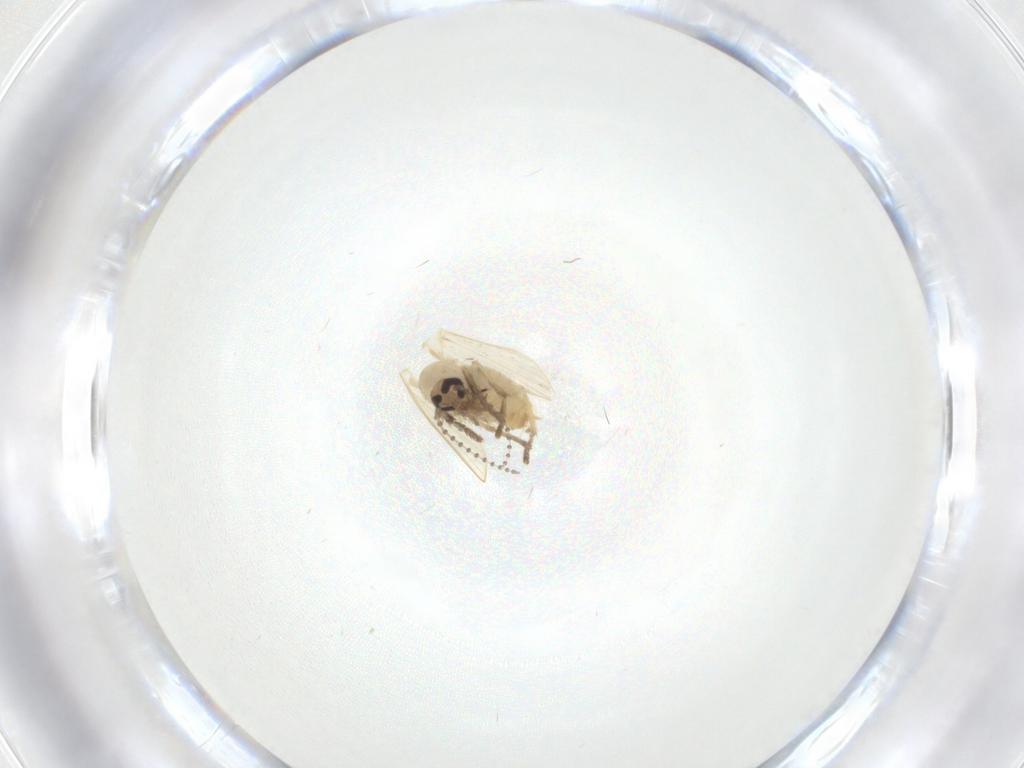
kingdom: Animalia
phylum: Arthropoda
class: Insecta
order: Diptera
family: Psychodidae
